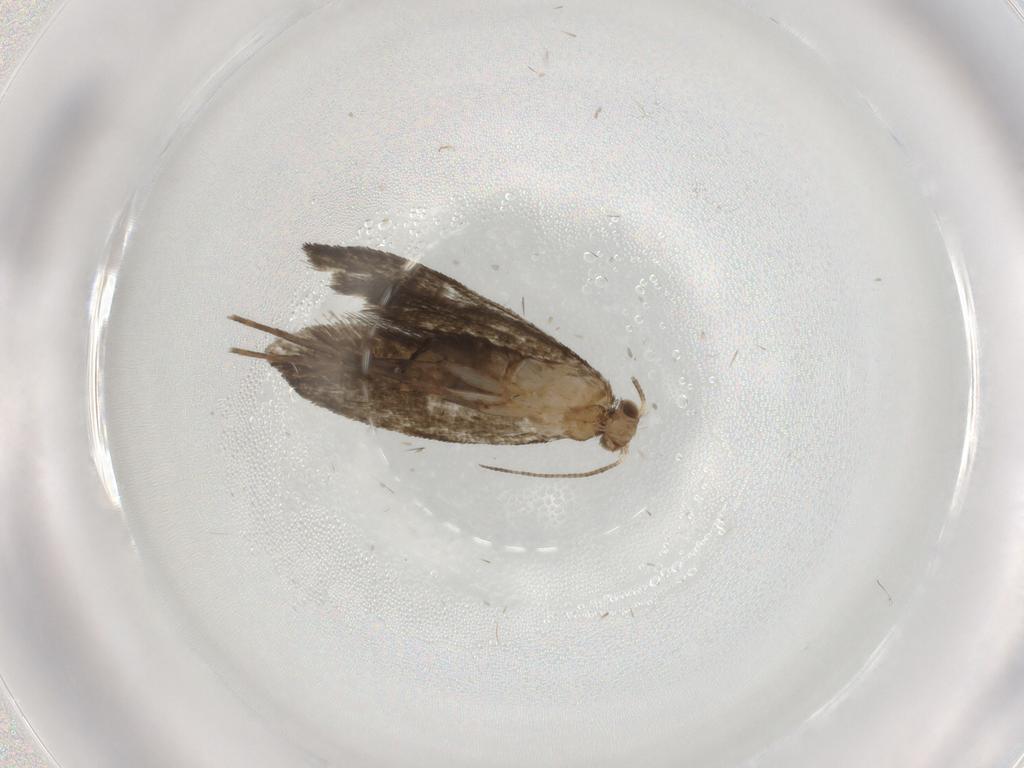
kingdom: Animalia
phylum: Arthropoda
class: Insecta
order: Lepidoptera
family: Tineidae
